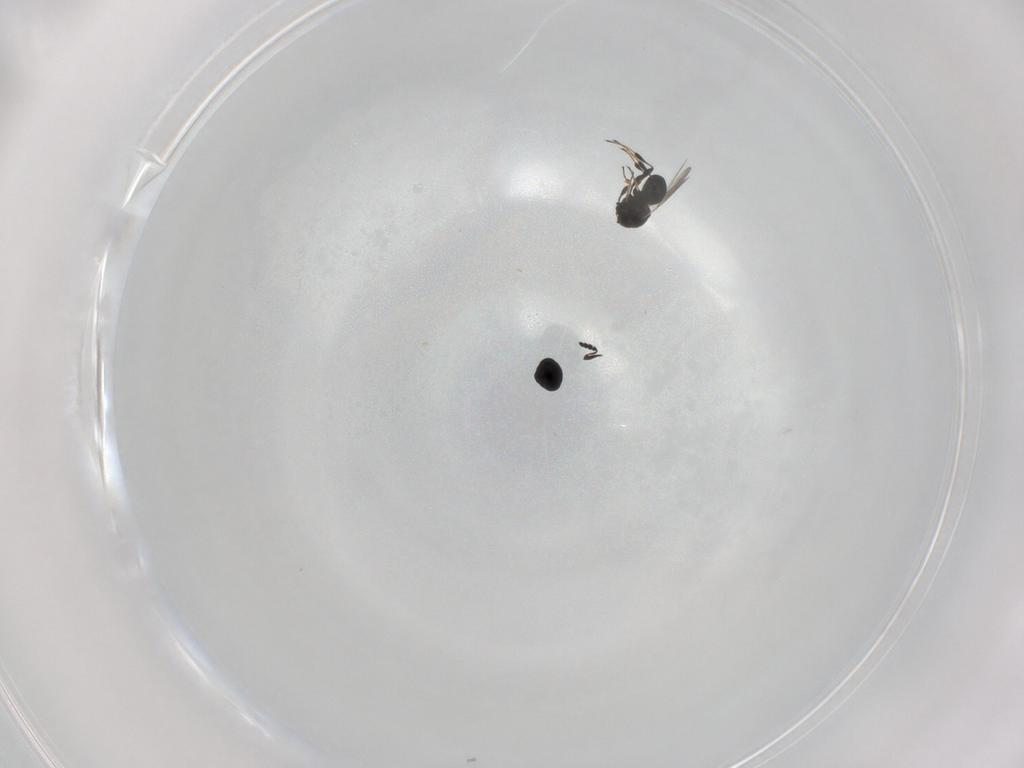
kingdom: Animalia
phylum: Arthropoda
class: Insecta
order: Hymenoptera
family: Platygastridae
